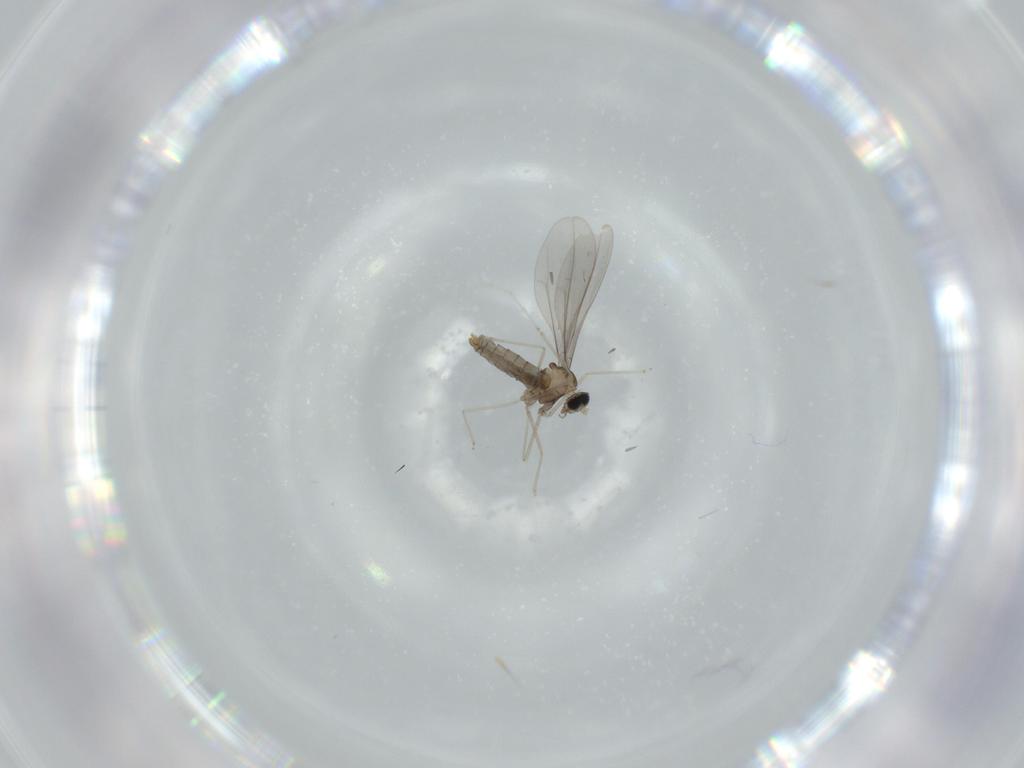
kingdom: Animalia
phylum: Arthropoda
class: Insecta
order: Diptera
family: Cecidomyiidae
